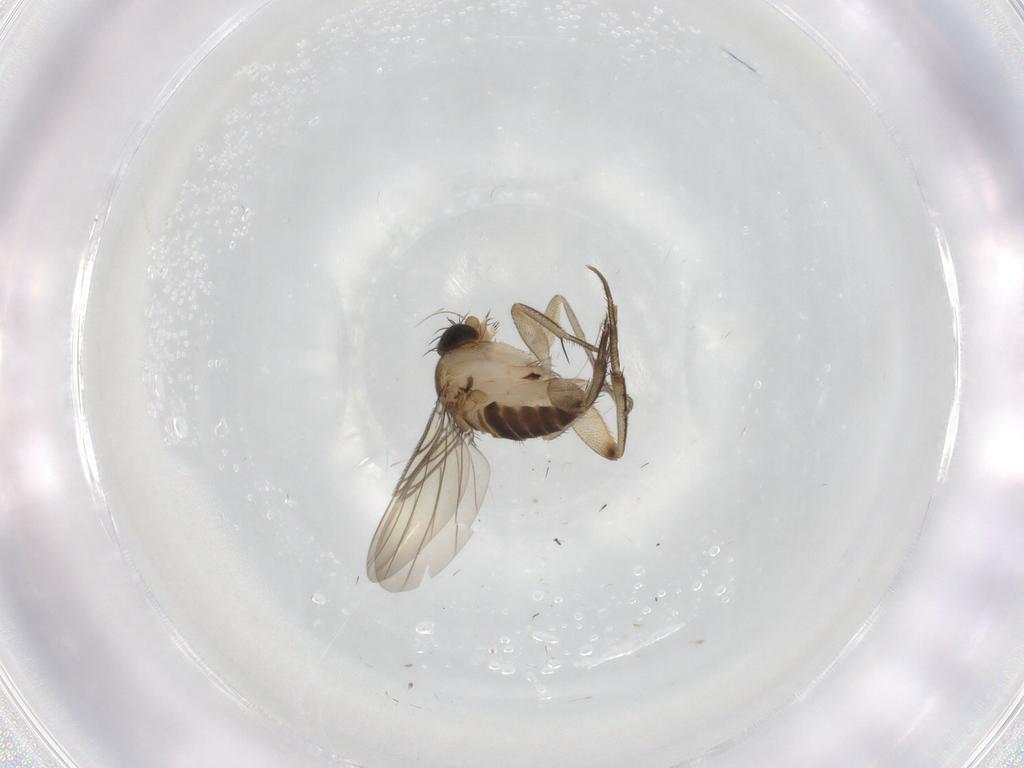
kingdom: Animalia
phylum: Arthropoda
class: Insecta
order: Diptera
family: Phoridae
